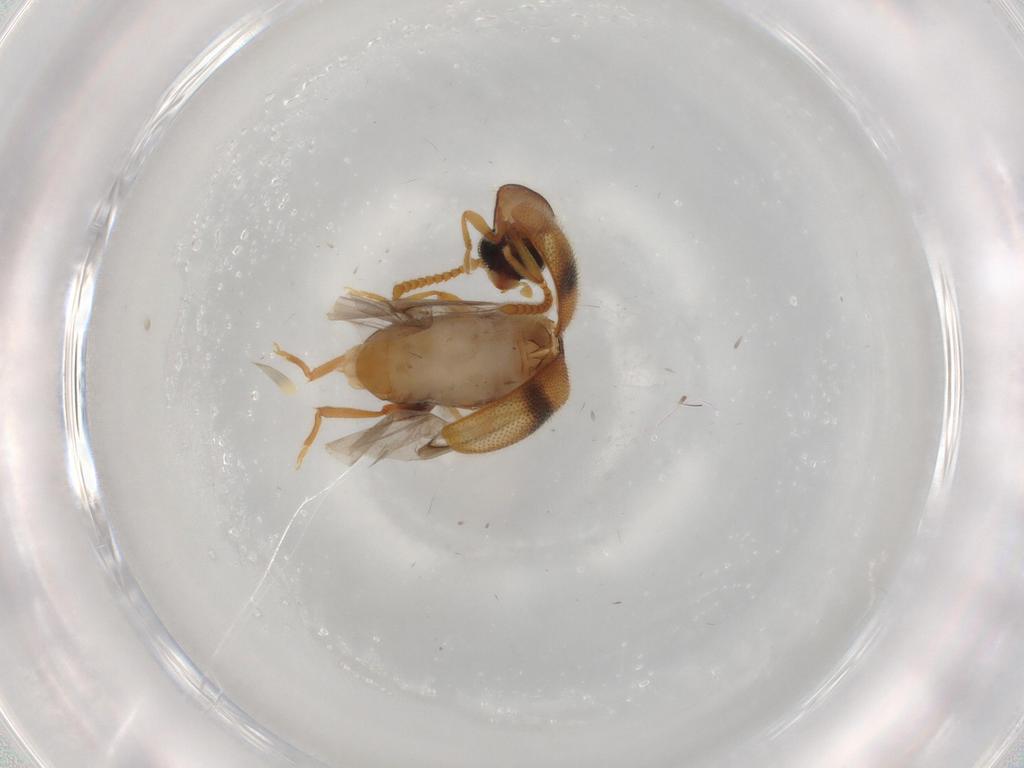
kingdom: Animalia
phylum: Arthropoda
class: Insecta
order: Coleoptera
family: Aderidae
